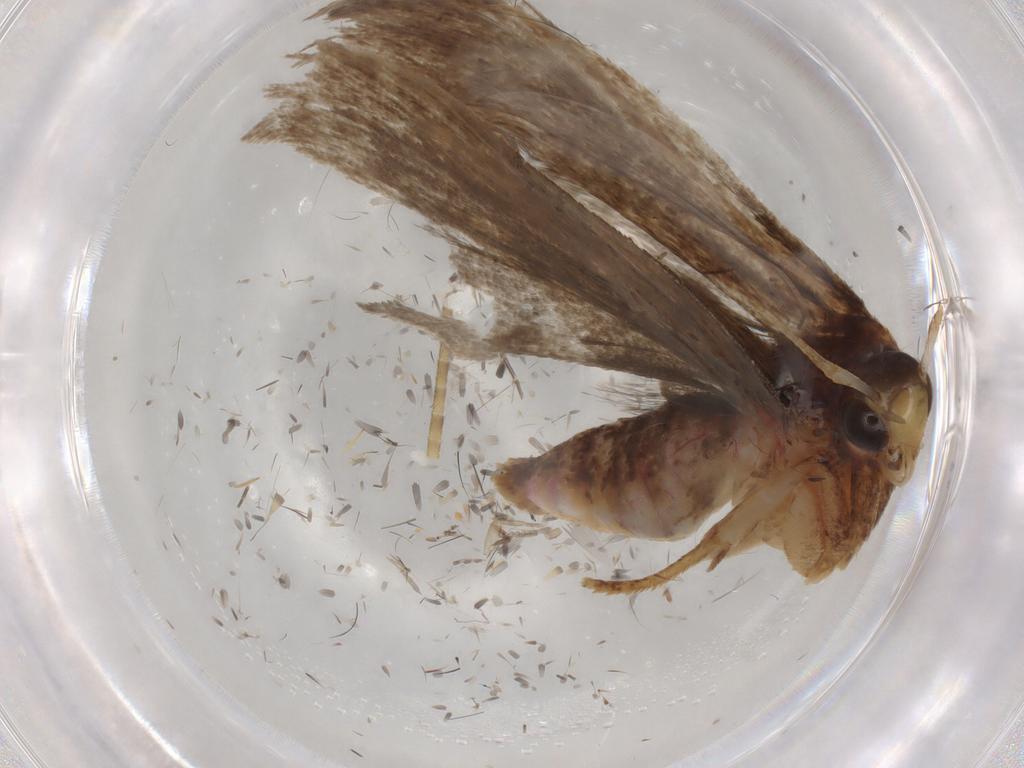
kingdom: Animalia
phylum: Arthropoda
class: Insecta
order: Lepidoptera
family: Autostichidae
